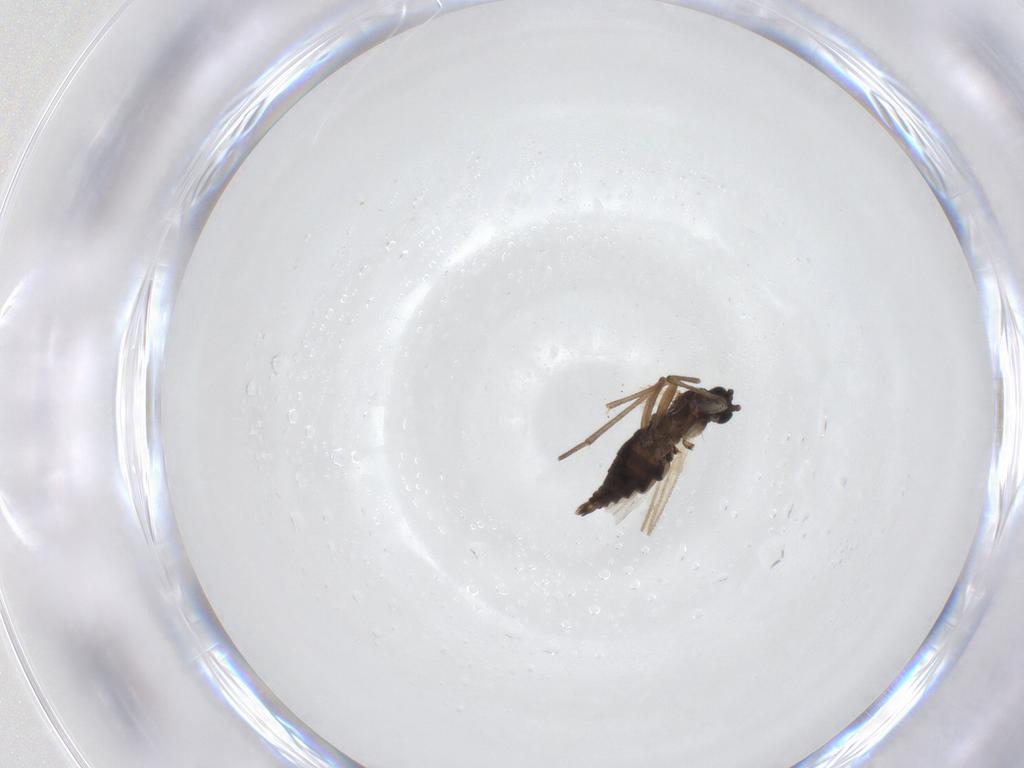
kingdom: Animalia
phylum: Arthropoda
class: Insecta
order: Diptera
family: Sciaridae
